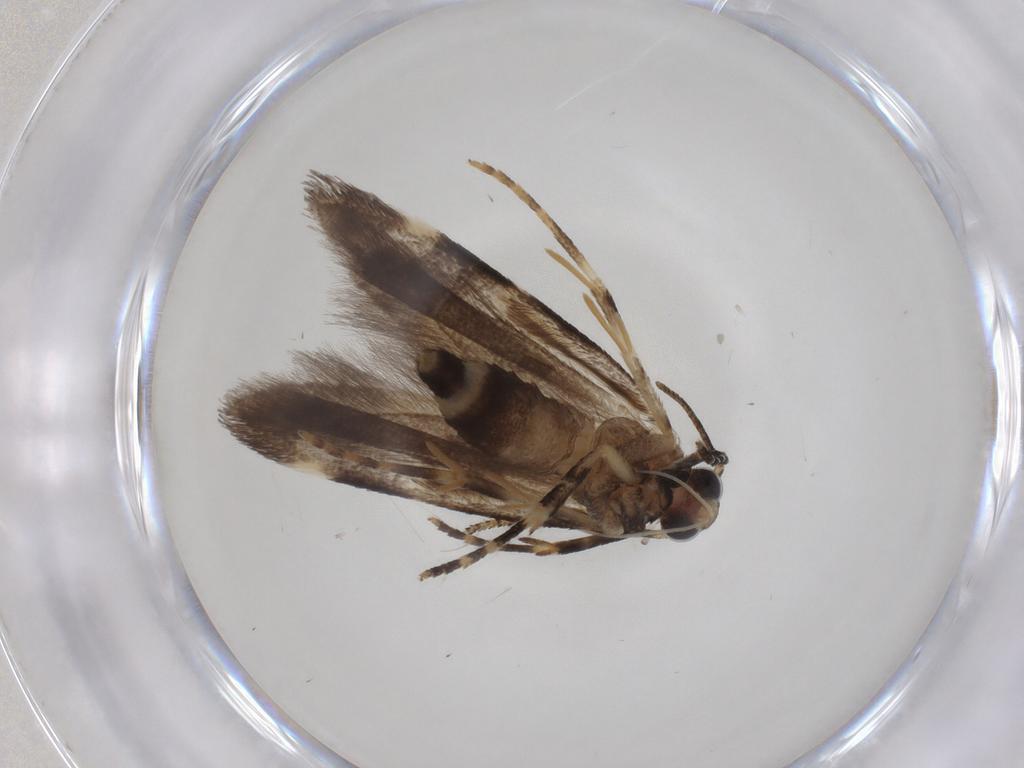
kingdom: Animalia
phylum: Arthropoda
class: Insecta
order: Lepidoptera
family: Gelechiidae
